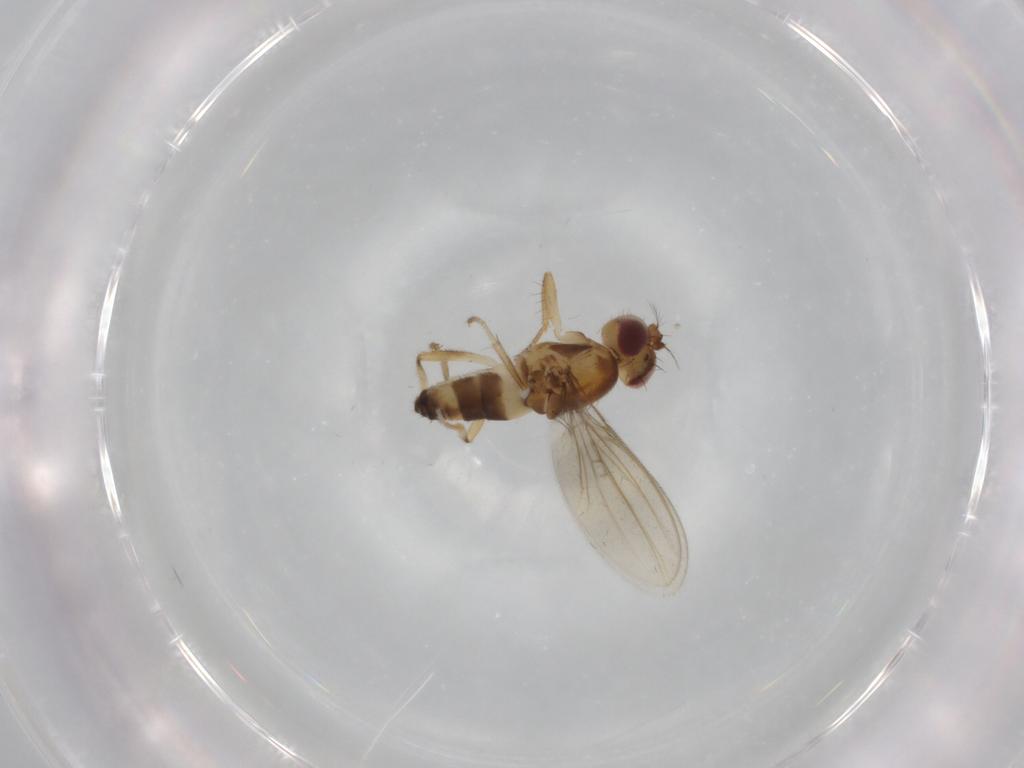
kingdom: Animalia
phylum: Arthropoda
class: Insecta
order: Diptera
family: Periscelididae
